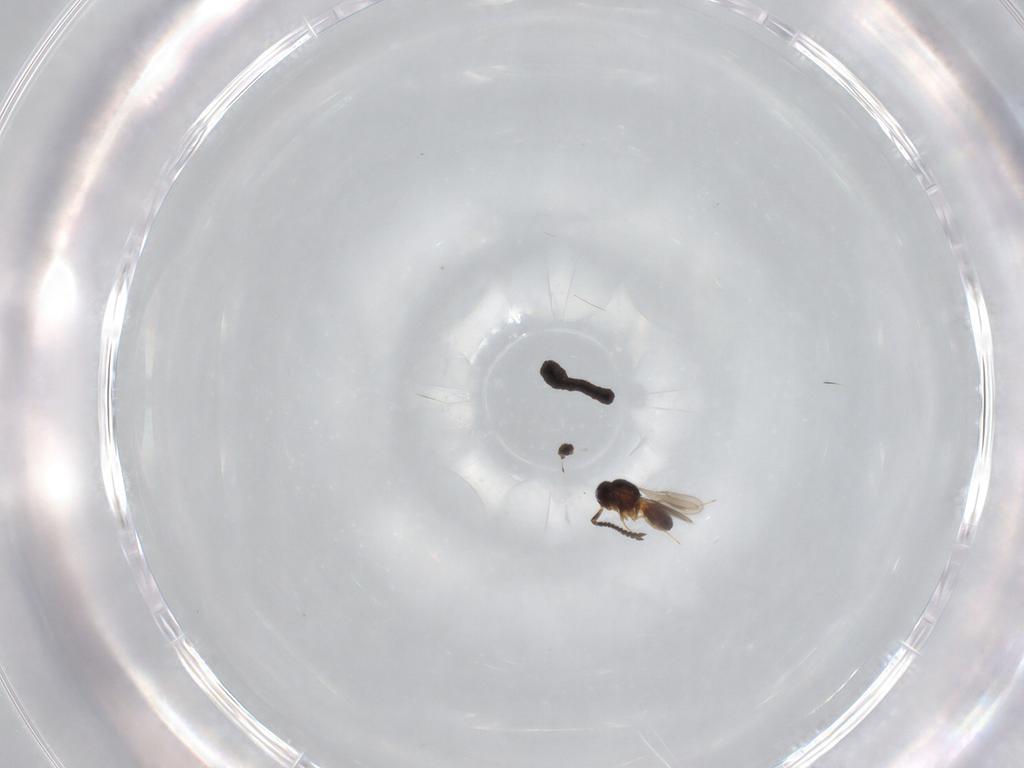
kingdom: Animalia
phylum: Arthropoda
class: Insecta
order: Hymenoptera
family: Scelionidae
